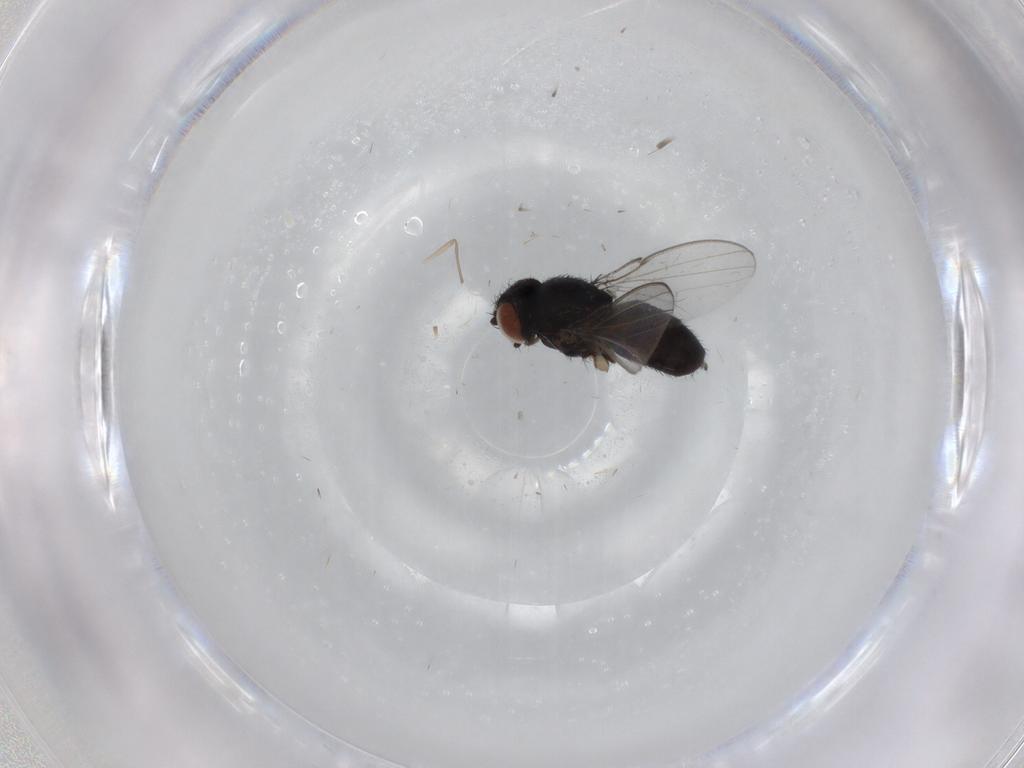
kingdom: Animalia
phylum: Arthropoda
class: Insecta
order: Diptera
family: Milichiidae
